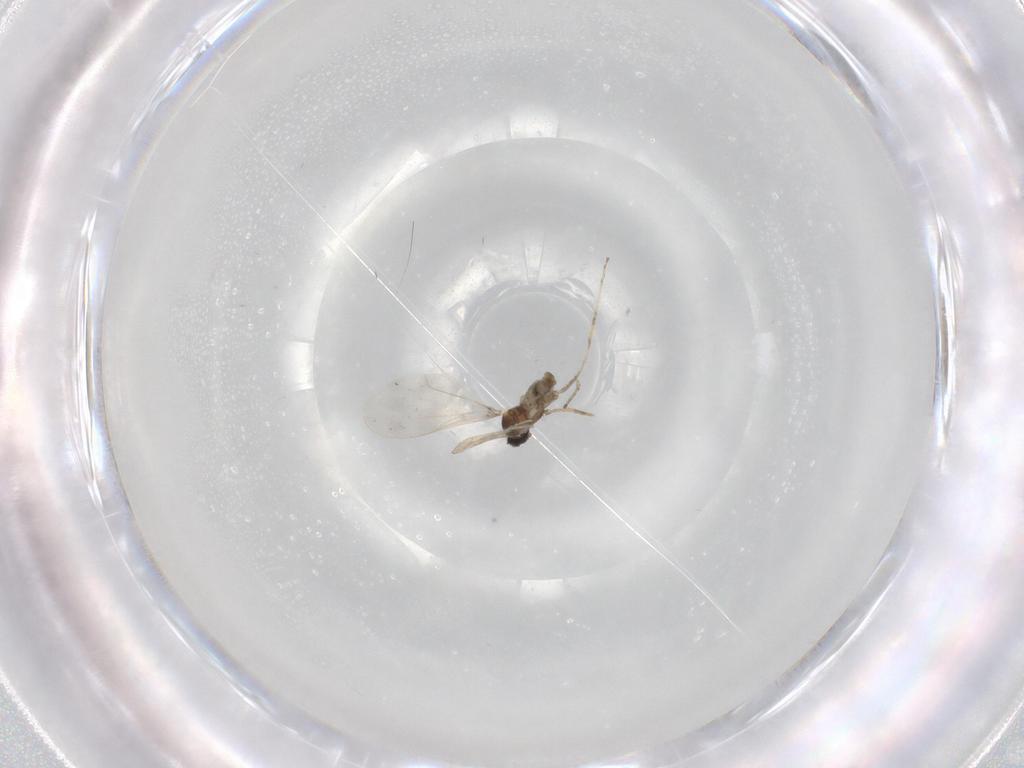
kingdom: Animalia
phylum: Arthropoda
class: Insecta
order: Diptera
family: Cecidomyiidae
